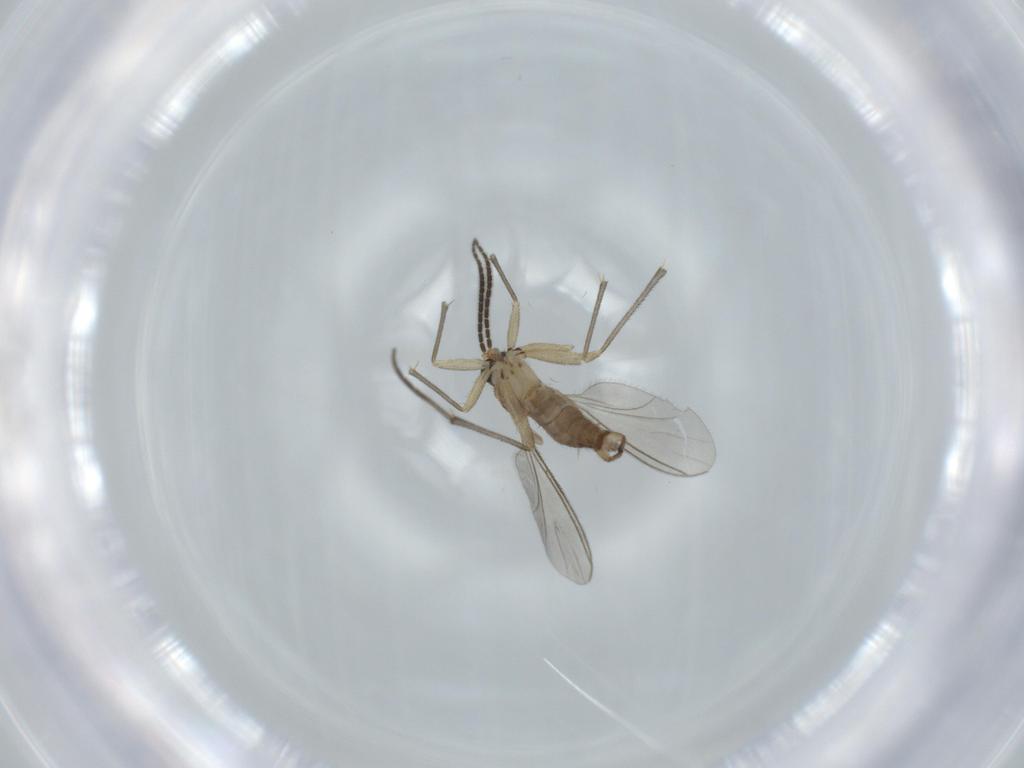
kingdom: Animalia
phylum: Arthropoda
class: Insecta
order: Diptera
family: Sciaridae
